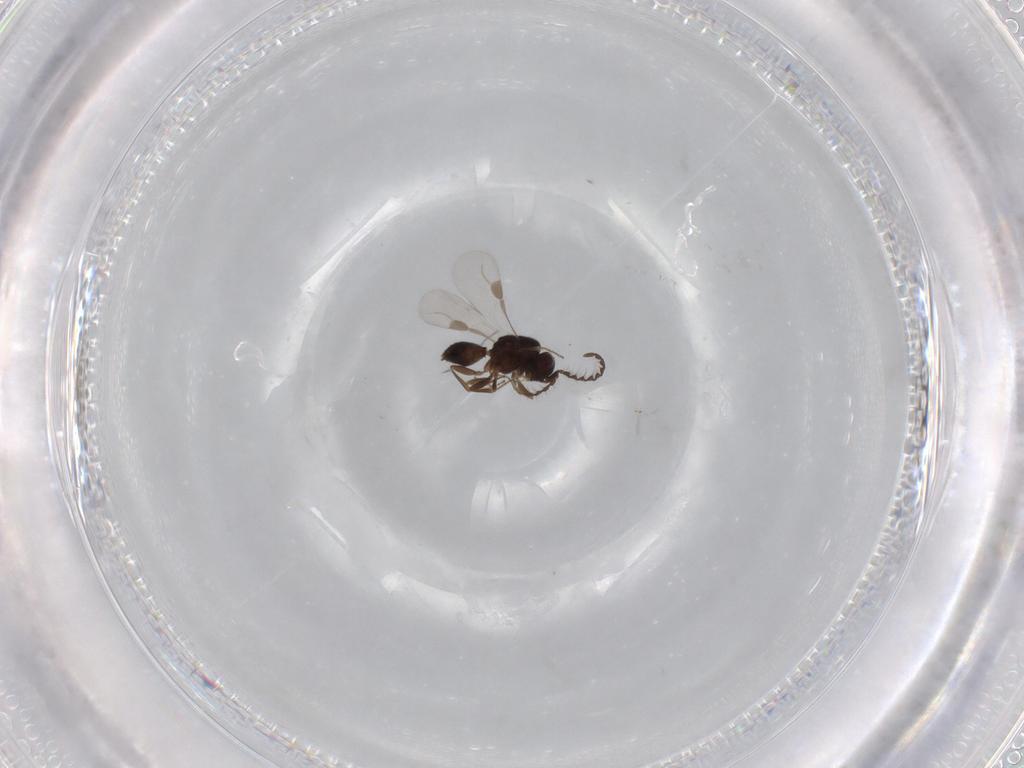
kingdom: Animalia
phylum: Arthropoda
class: Insecta
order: Hymenoptera
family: Megaspilidae
